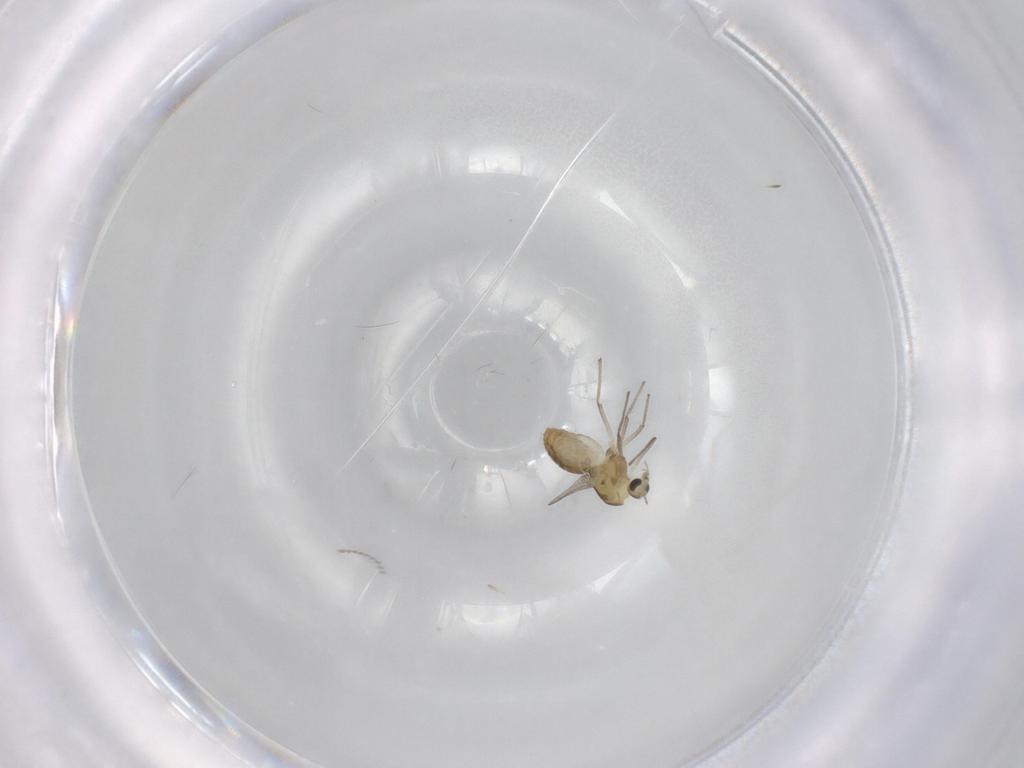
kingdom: Animalia
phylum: Arthropoda
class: Insecta
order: Diptera
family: Chironomidae
